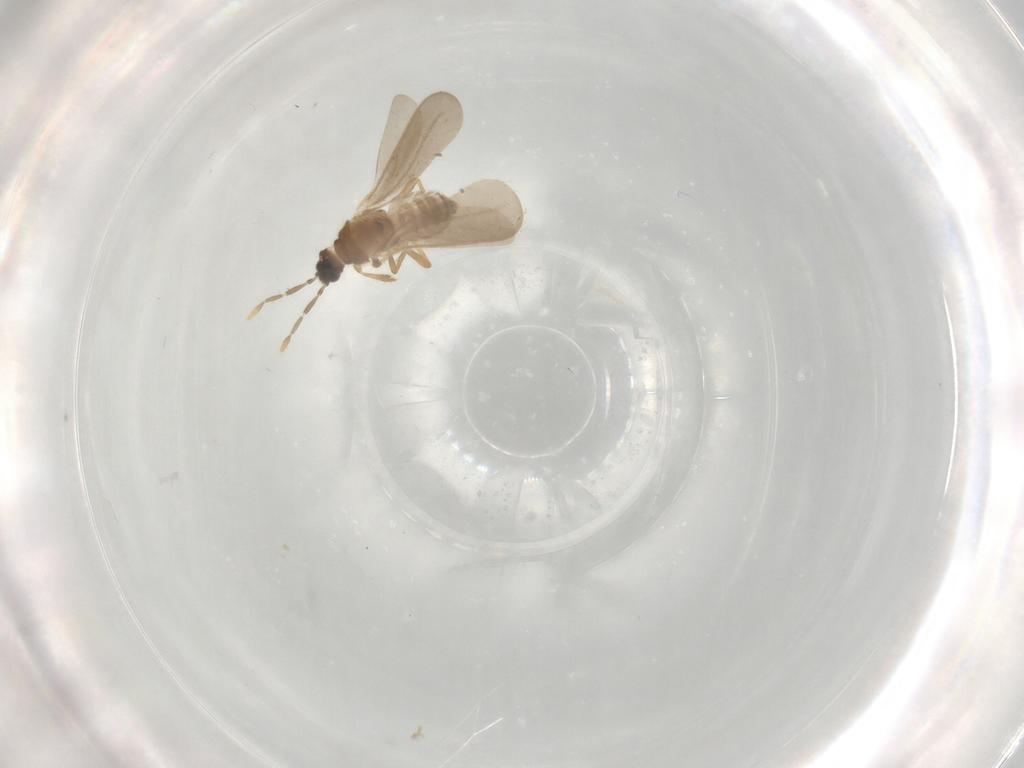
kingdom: Animalia
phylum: Arthropoda
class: Insecta
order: Hemiptera
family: Enicocephalidae
